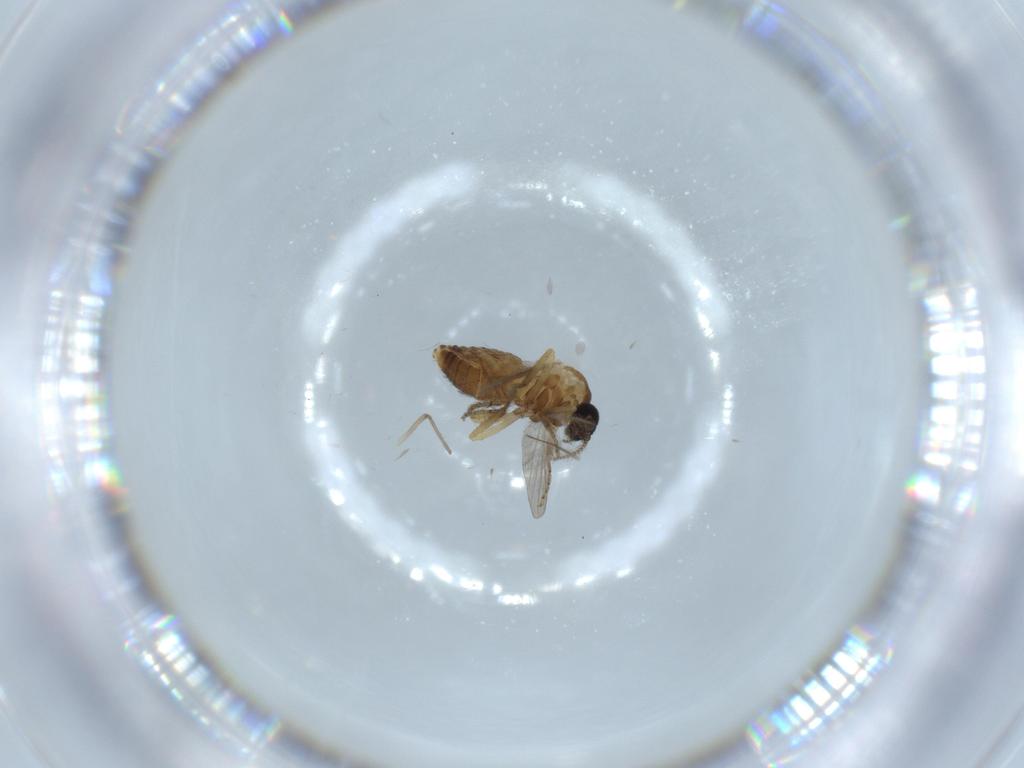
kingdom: Animalia
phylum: Arthropoda
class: Insecta
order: Diptera
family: Ceratopogonidae
